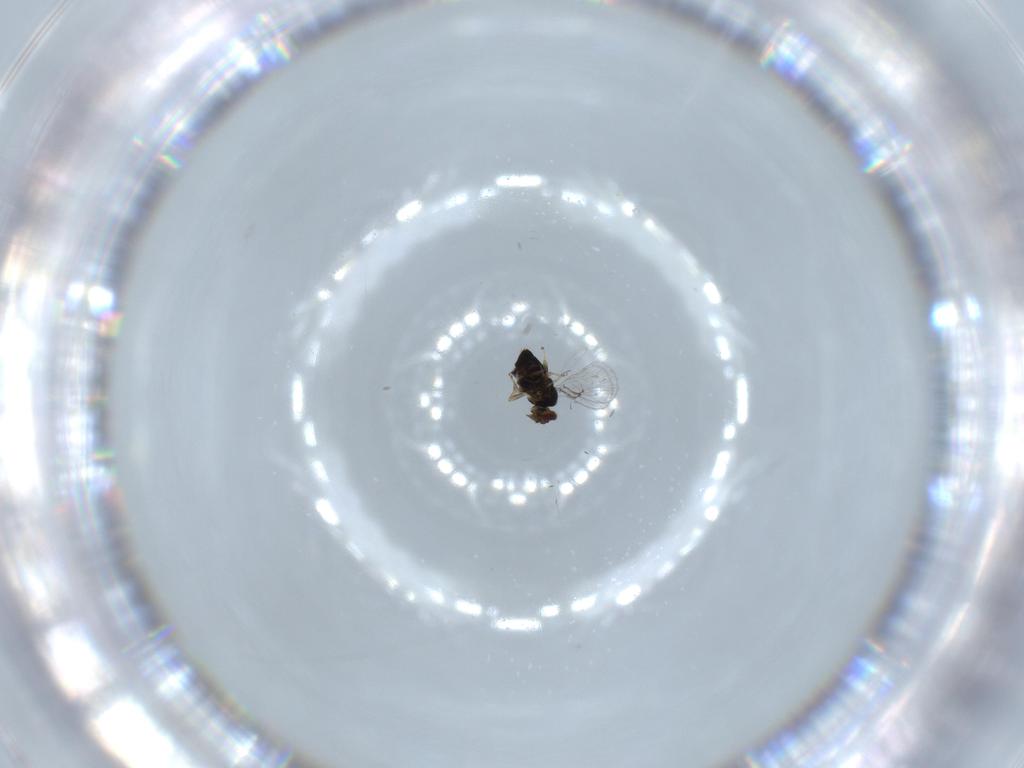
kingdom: Animalia
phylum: Arthropoda
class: Insecta
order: Hymenoptera
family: Trichogrammatidae
